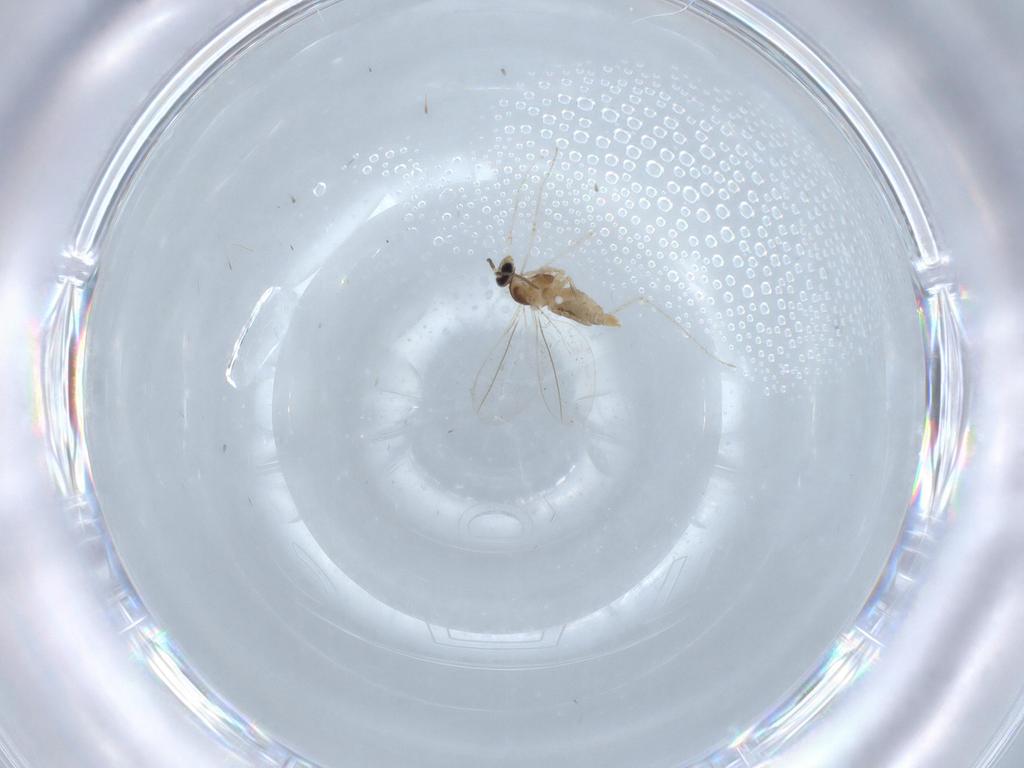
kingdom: Animalia
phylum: Arthropoda
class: Insecta
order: Diptera
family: Cecidomyiidae
